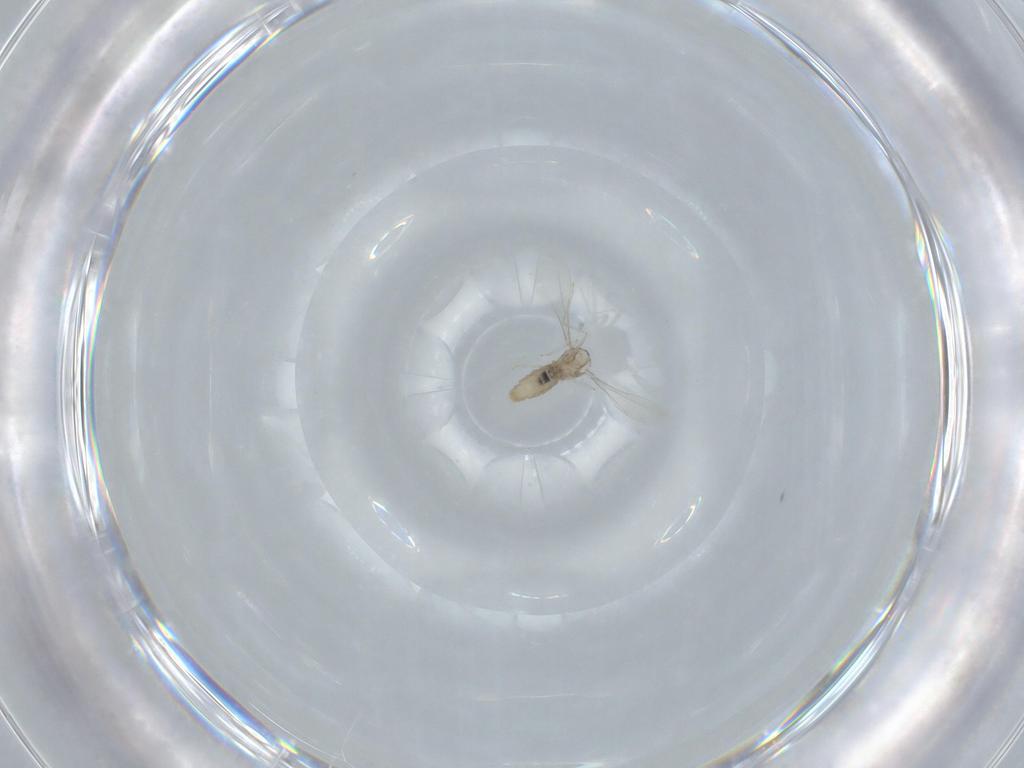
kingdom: Animalia
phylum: Arthropoda
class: Insecta
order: Diptera
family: Cecidomyiidae
